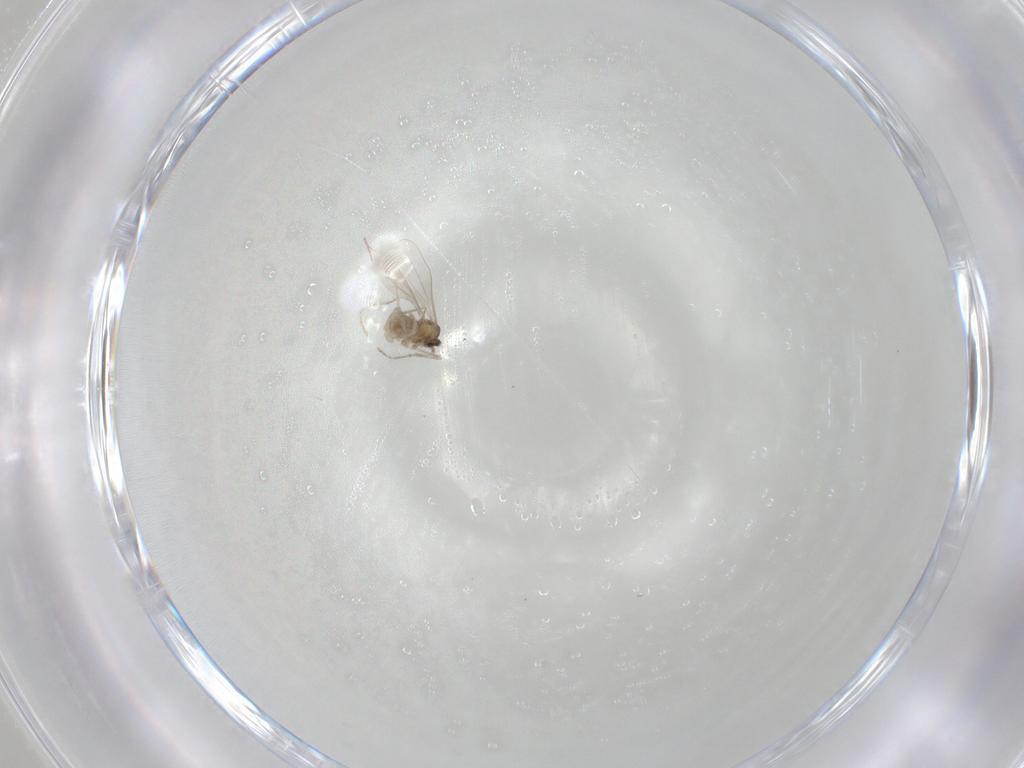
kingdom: Animalia
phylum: Arthropoda
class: Insecta
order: Diptera
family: Cecidomyiidae
